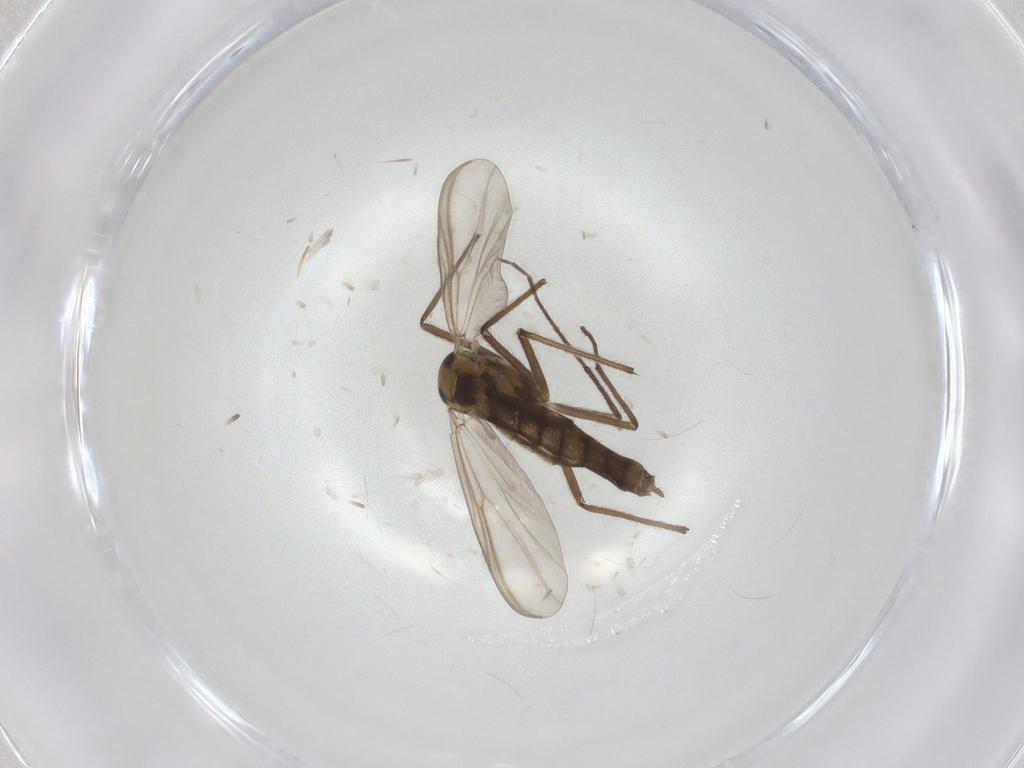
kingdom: Animalia
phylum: Arthropoda
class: Insecta
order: Diptera
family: Chironomidae
